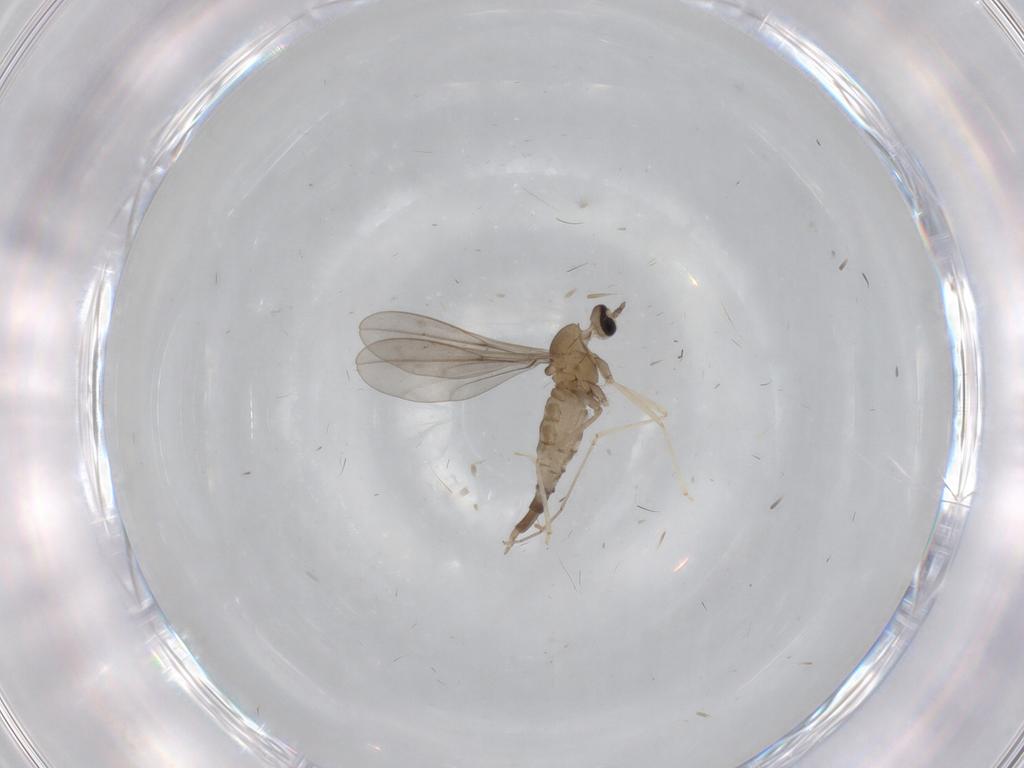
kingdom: Animalia
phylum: Arthropoda
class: Insecta
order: Diptera
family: Cecidomyiidae
